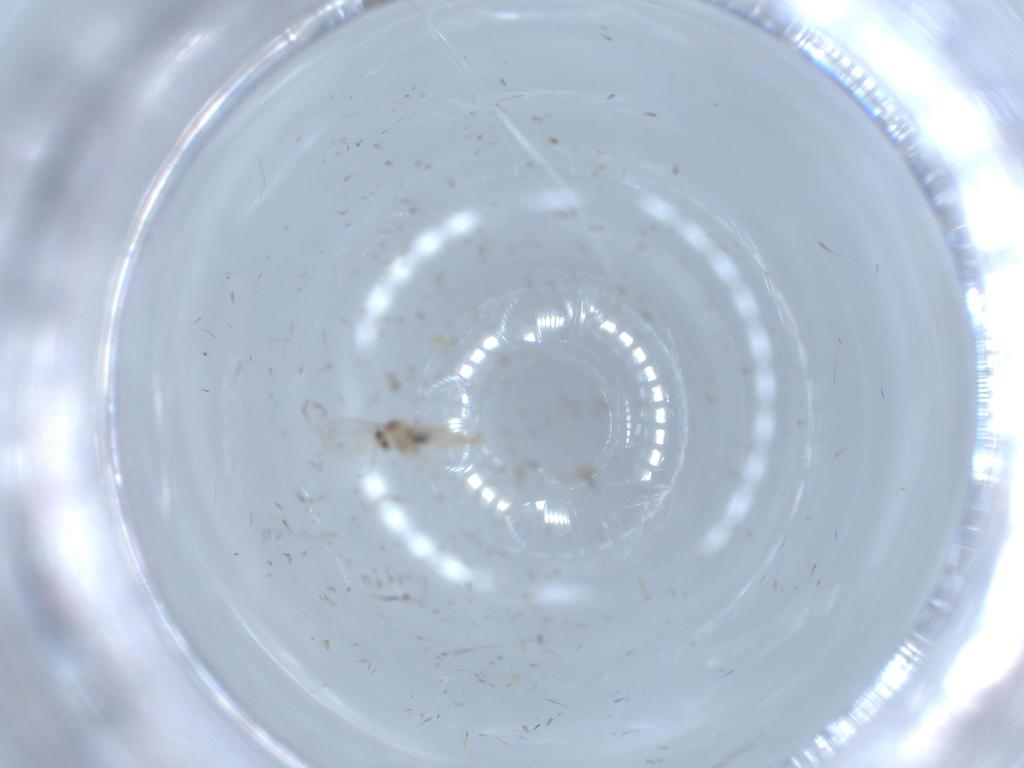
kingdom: Animalia
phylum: Arthropoda
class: Insecta
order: Diptera
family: Cecidomyiidae
